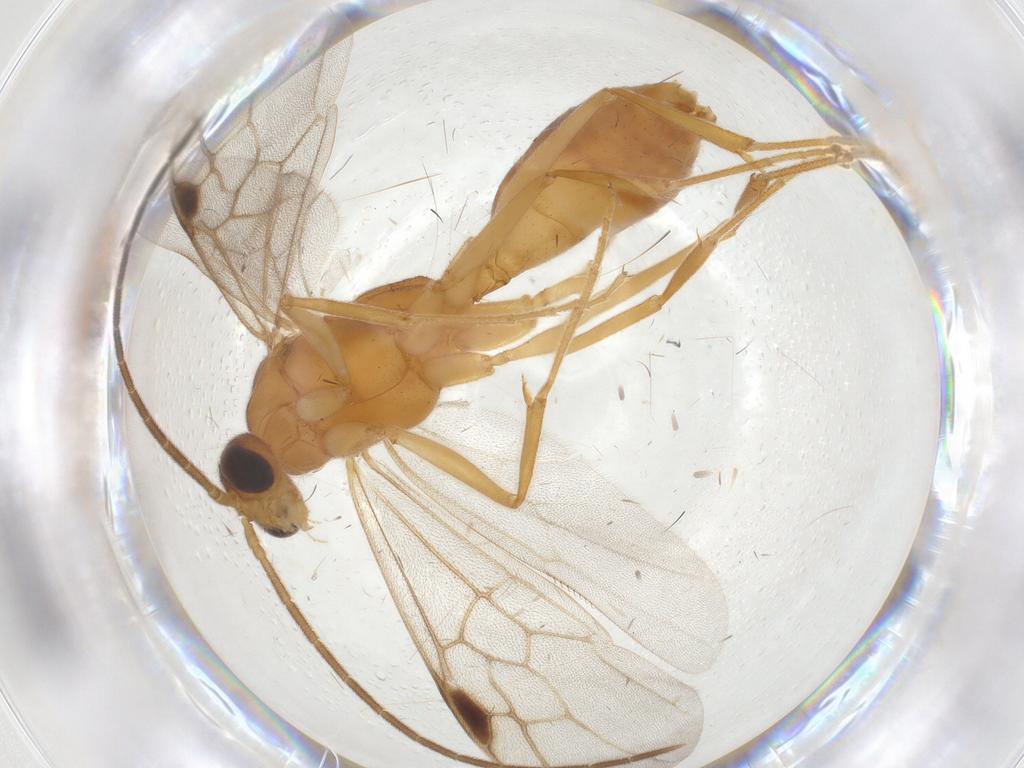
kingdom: Animalia
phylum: Arthropoda
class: Insecta
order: Hymenoptera
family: Formicidae
